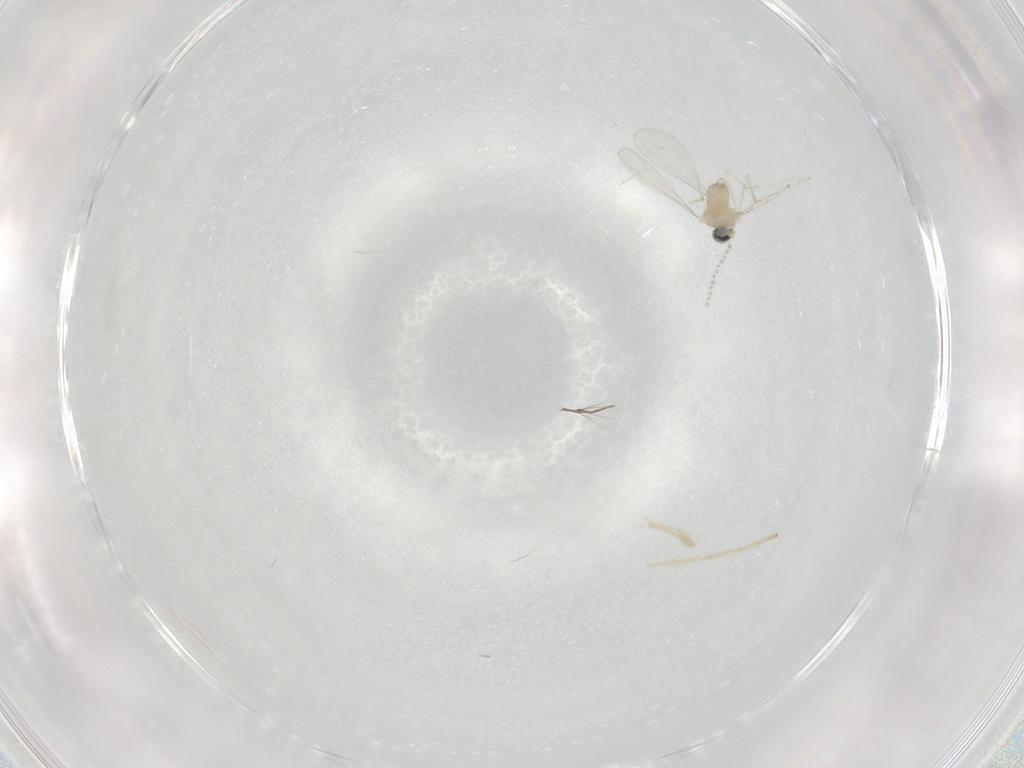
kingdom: Animalia
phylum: Arthropoda
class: Insecta
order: Diptera
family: Chironomidae
